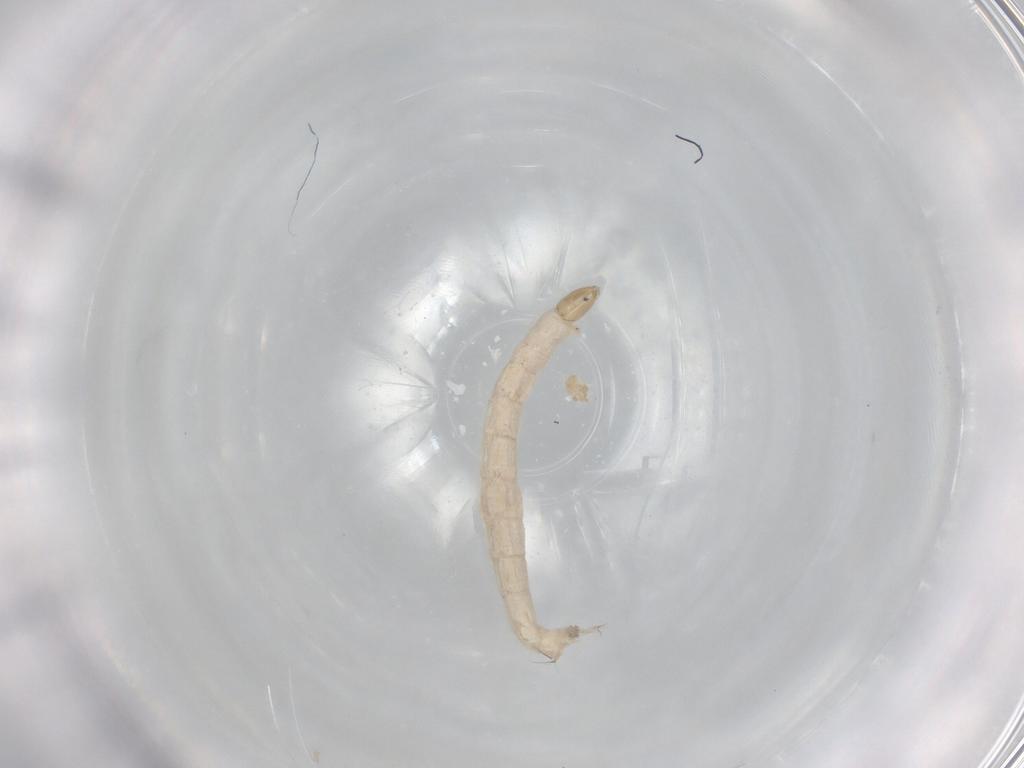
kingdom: Animalia
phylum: Arthropoda
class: Insecta
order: Diptera
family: Chironomidae
